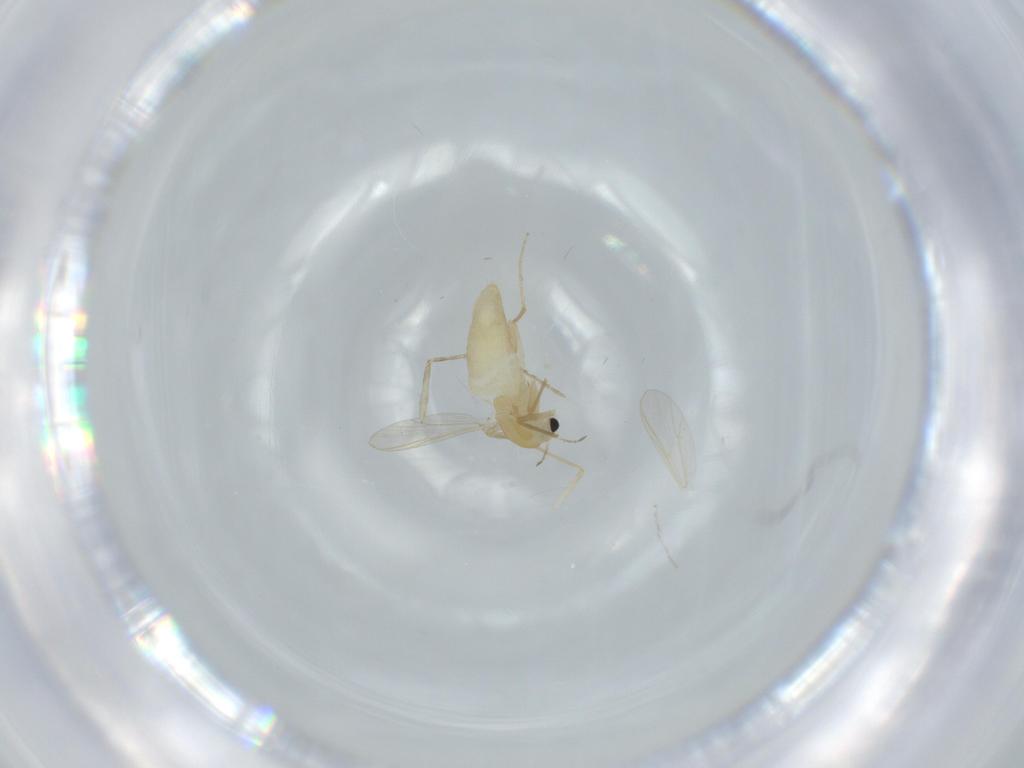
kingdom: Animalia
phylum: Arthropoda
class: Insecta
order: Diptera
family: Chironomidae
